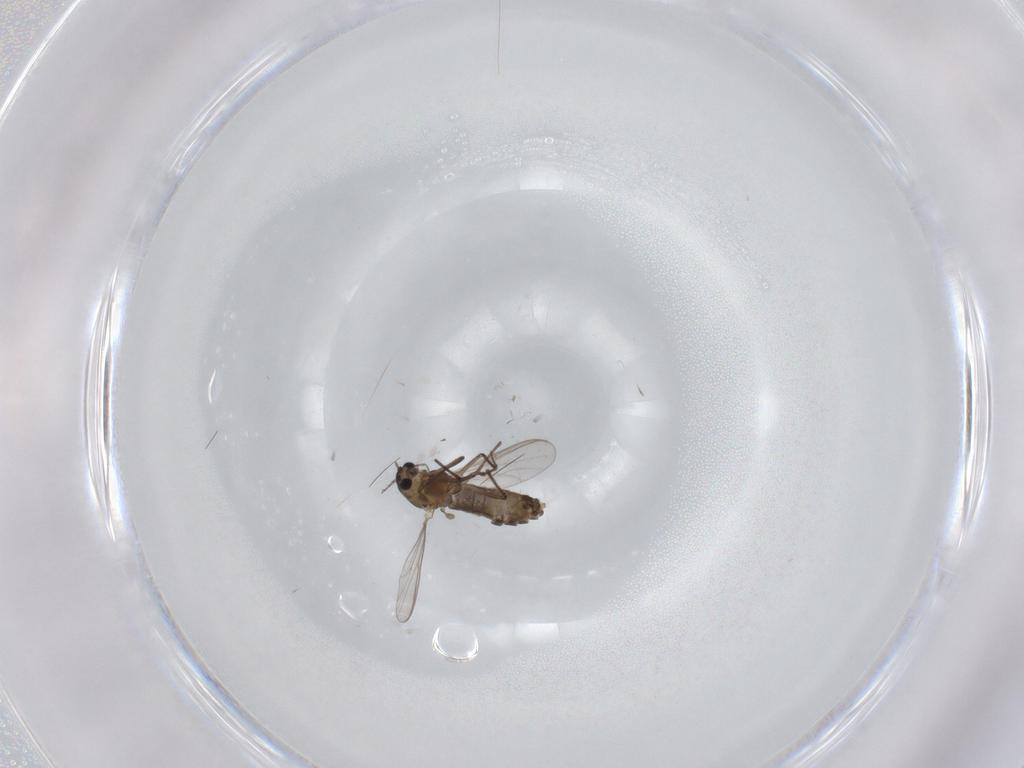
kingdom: Animalia
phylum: Arthropoda
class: Insecta
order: Diptera
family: Chironomidae
